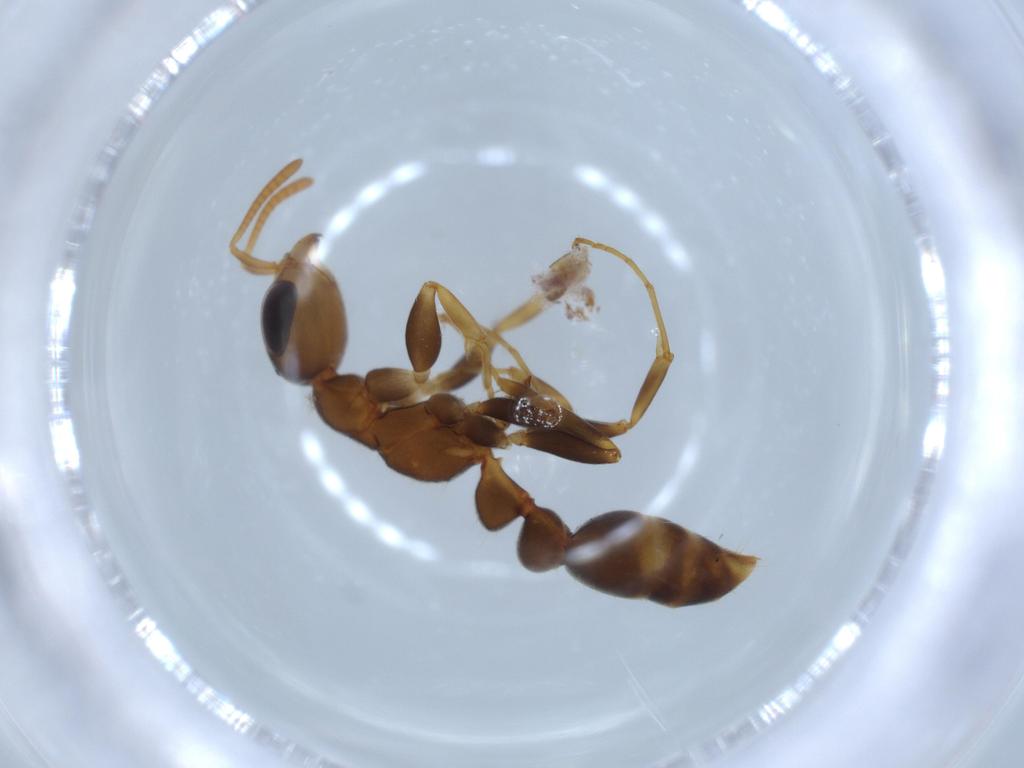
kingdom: Animalia
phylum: Arthropoda
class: Insecta
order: Hymenoptera
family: Formicidae
